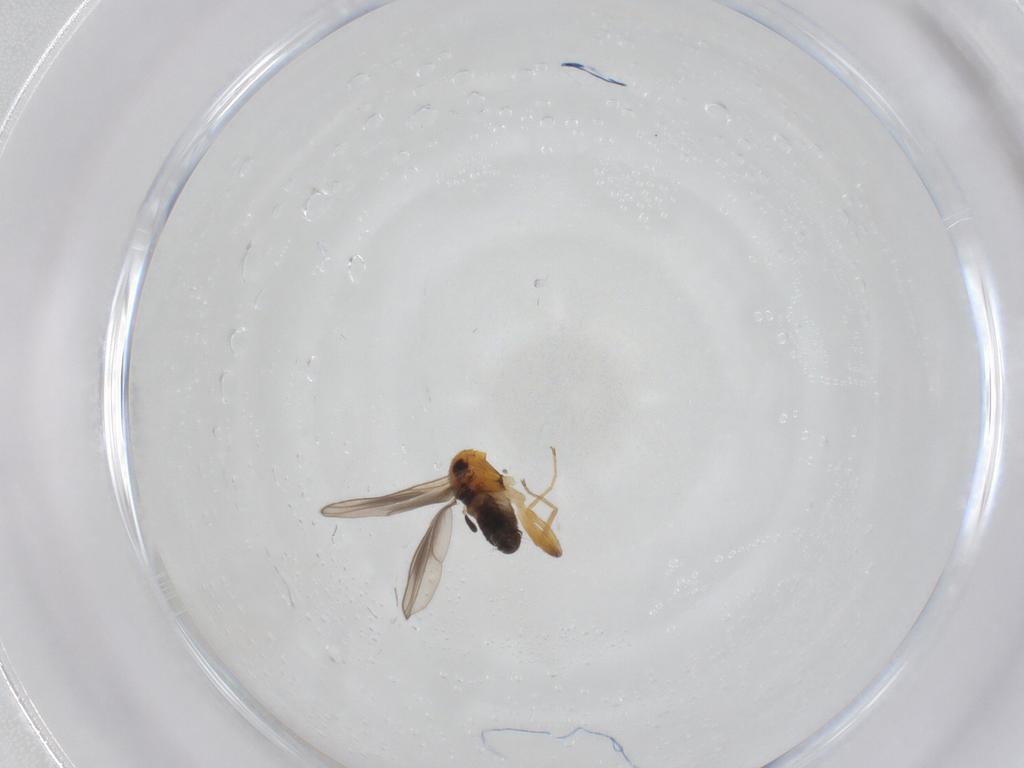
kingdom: Animalia
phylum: Arthropoda
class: Insecta
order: Diptera
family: Hybotidae
